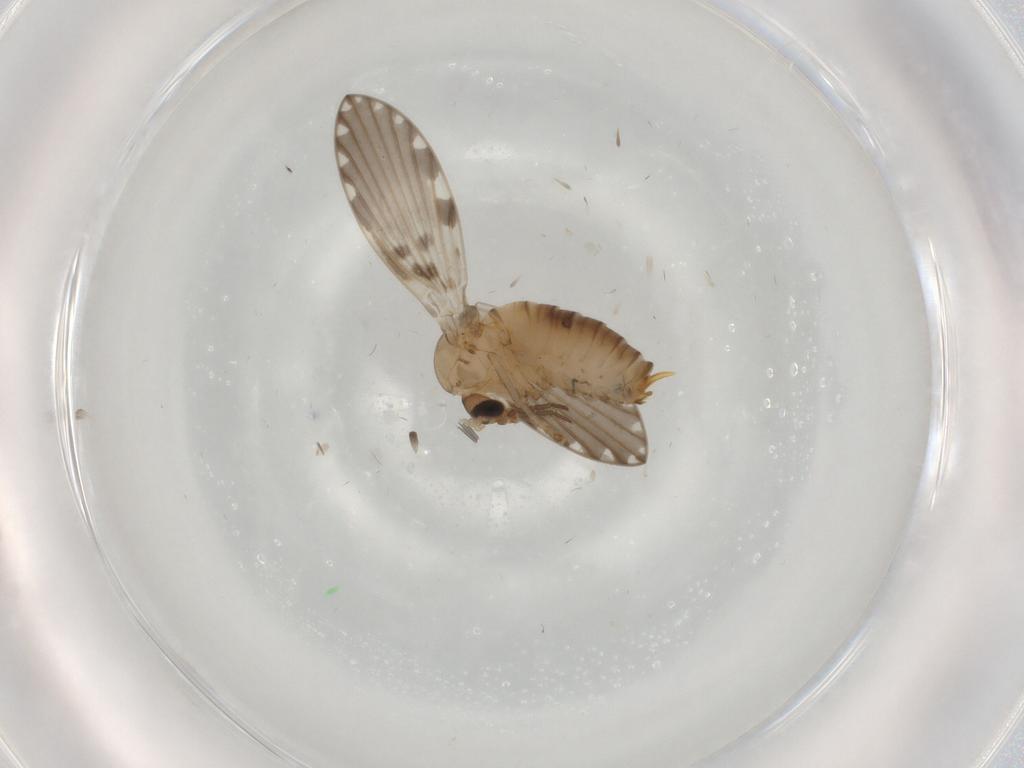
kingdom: Animalia
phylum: Arthropoda
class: Insecta
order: Diptera
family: Psychodidae
